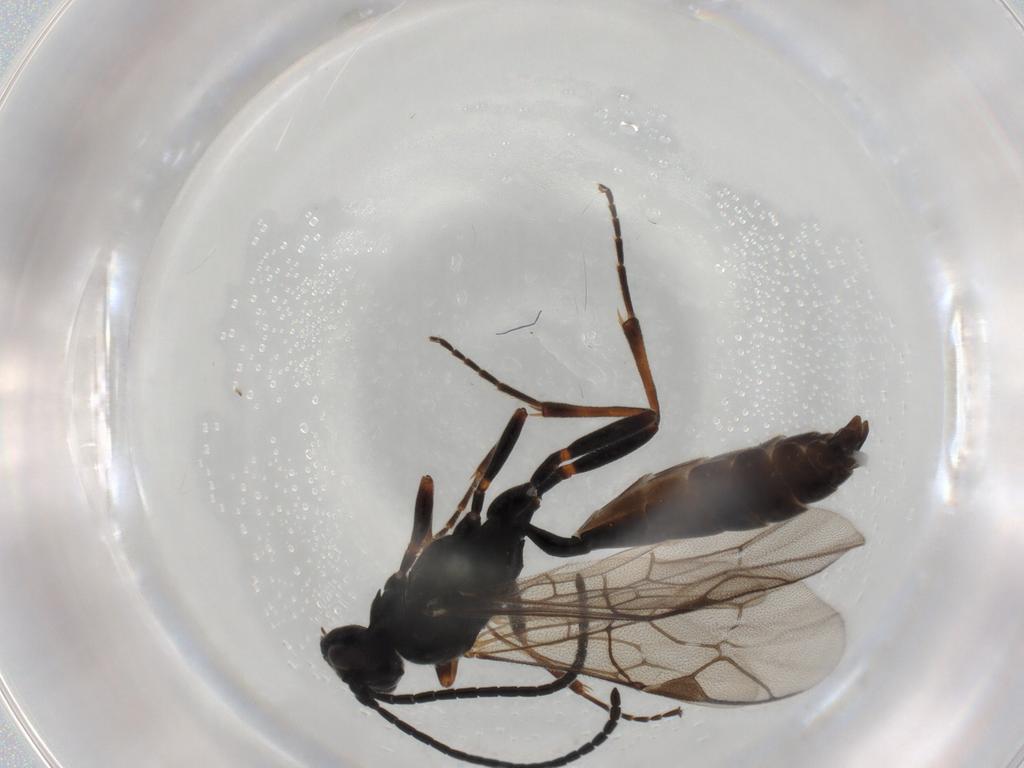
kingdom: Animalia
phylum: Arthropoda
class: Insecta
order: Hymenoptera
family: Ichneumonidae
